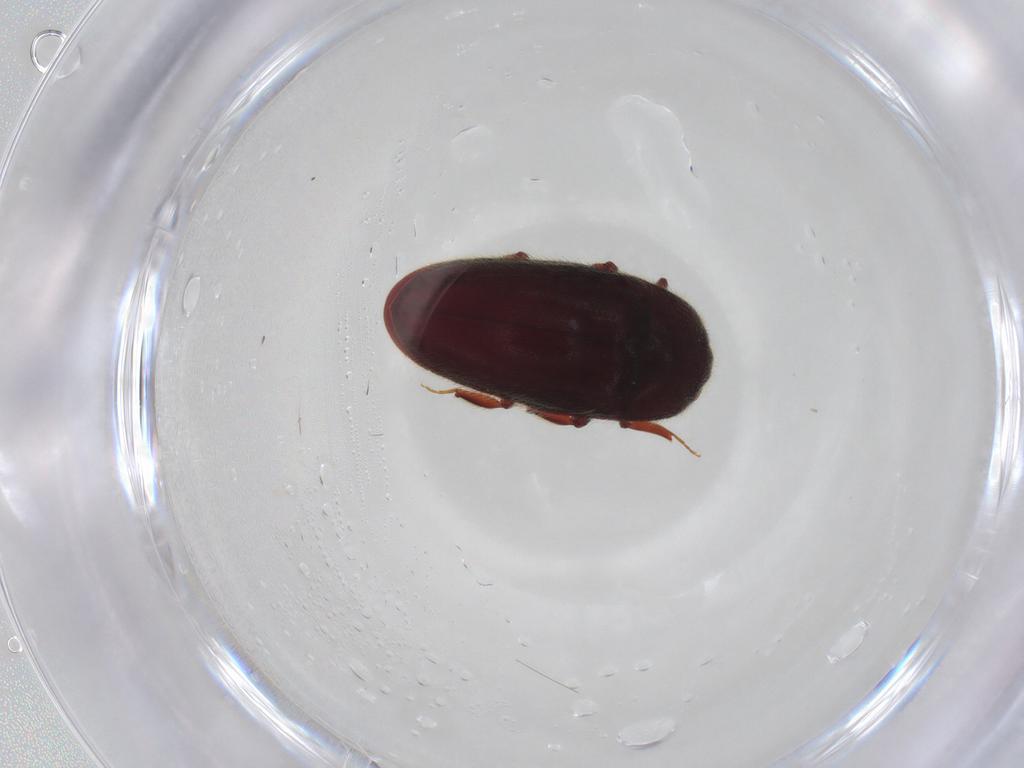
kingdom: Animalia
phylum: Arthropoda
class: Insecta
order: Coleoptera
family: Throscidae
